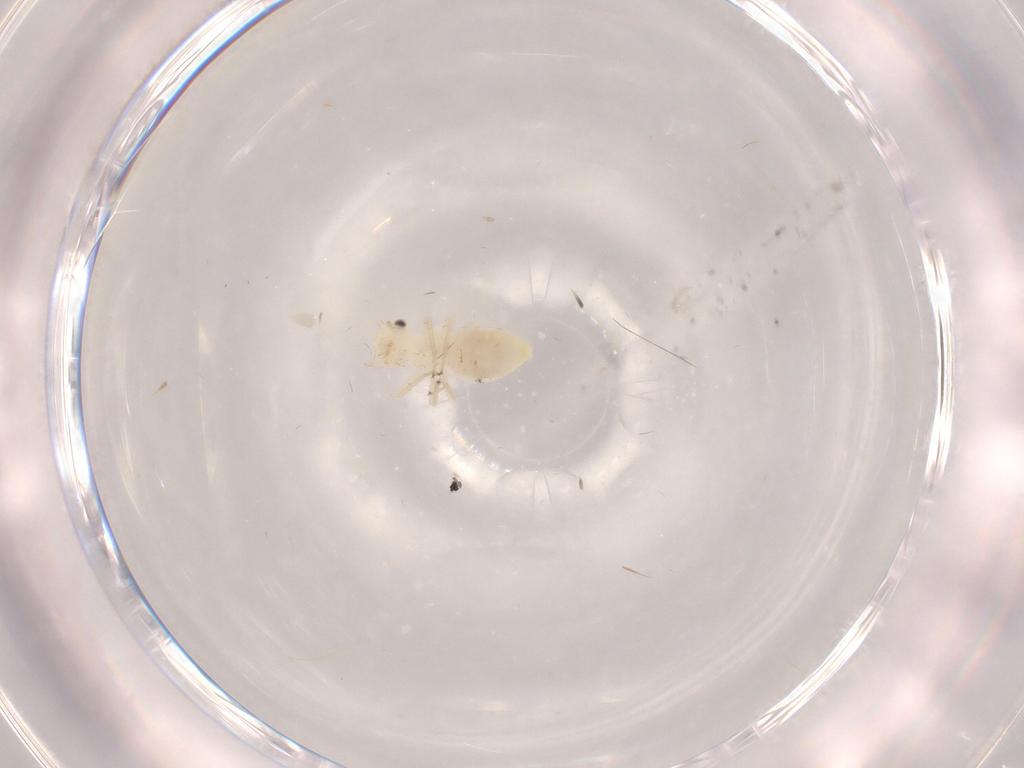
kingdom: Animalia
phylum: Arthropoda
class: Insecta
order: Psocodea
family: Caeciliusidae
